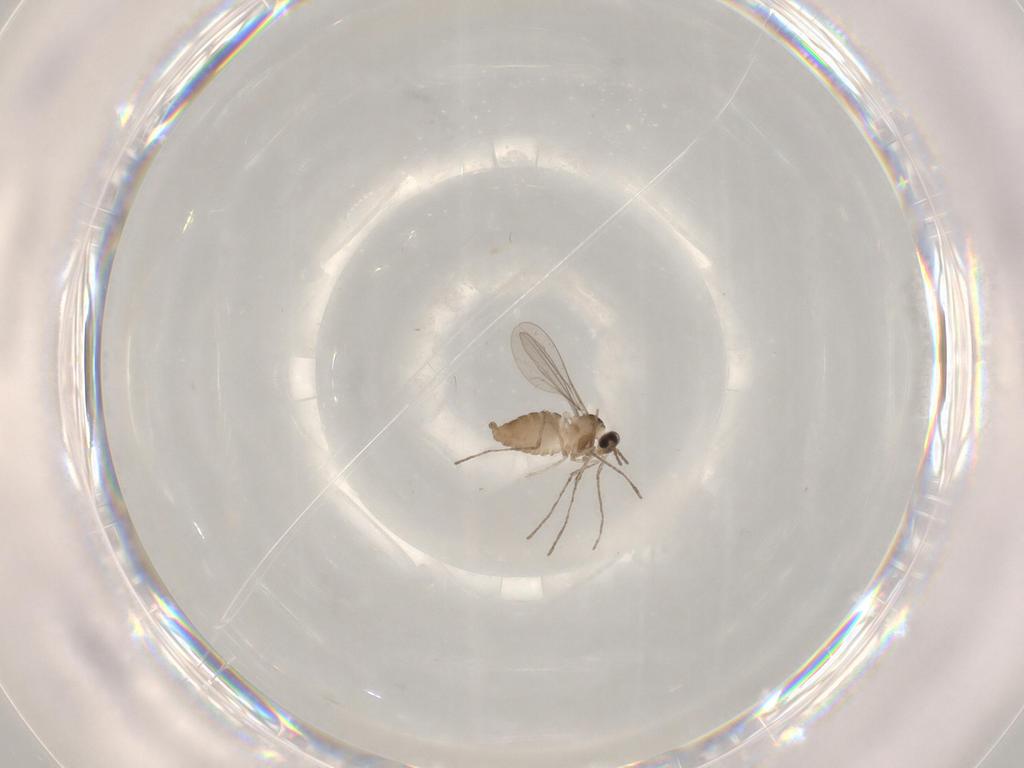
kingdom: Animalia
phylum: Arthropoda
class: Insecta
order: Diptera
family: Cecidomyiidae
